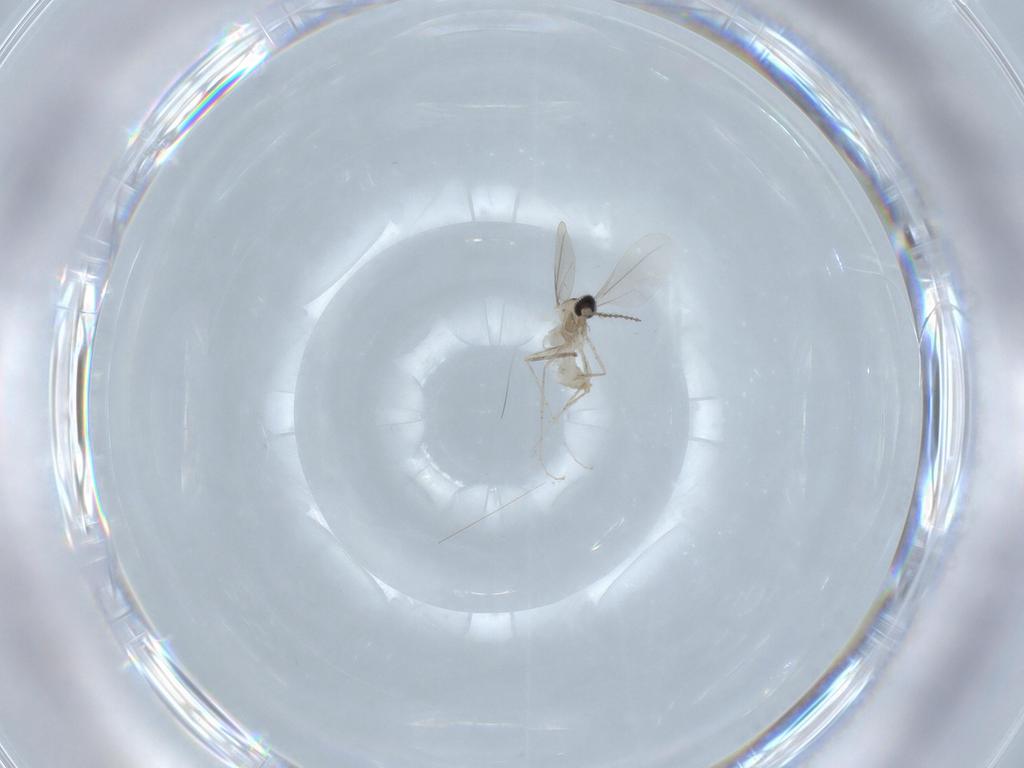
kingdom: Animalia
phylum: Arthropoda
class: Insecta
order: Diptera
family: Cecidomyiidae
